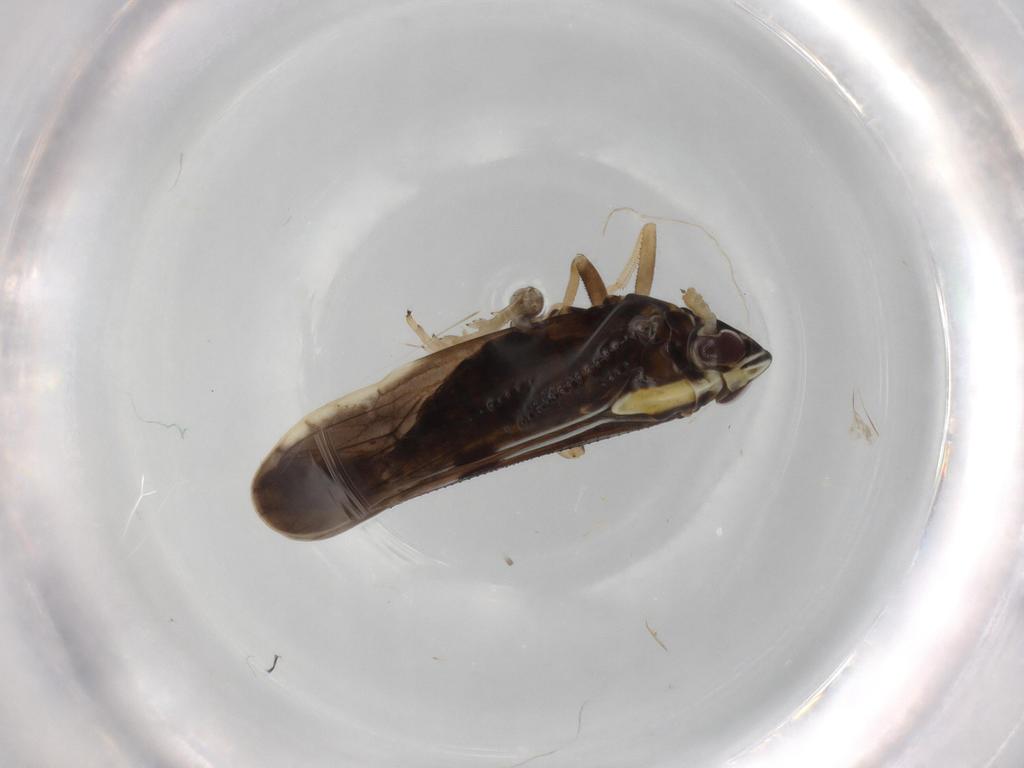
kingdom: Animalia
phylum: Arthropoda
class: Insecta
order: Hemiptera
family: Delphacidae
